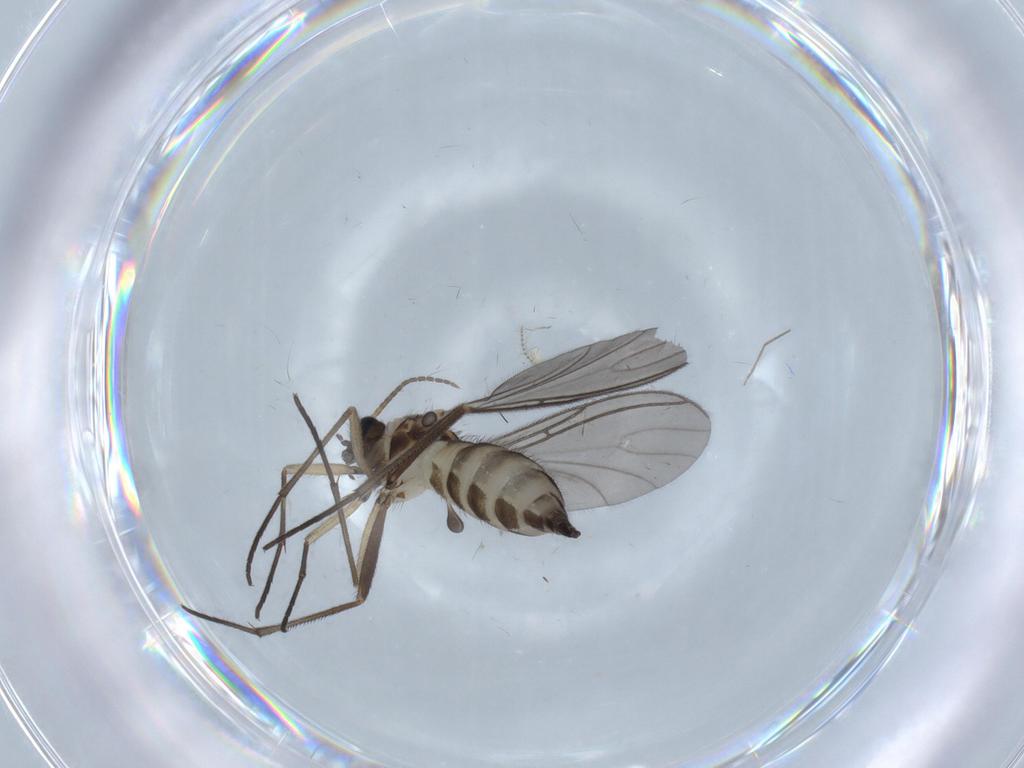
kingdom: Animalia
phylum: Arthropoda
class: Insecta
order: Diptera
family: Sciaridae
